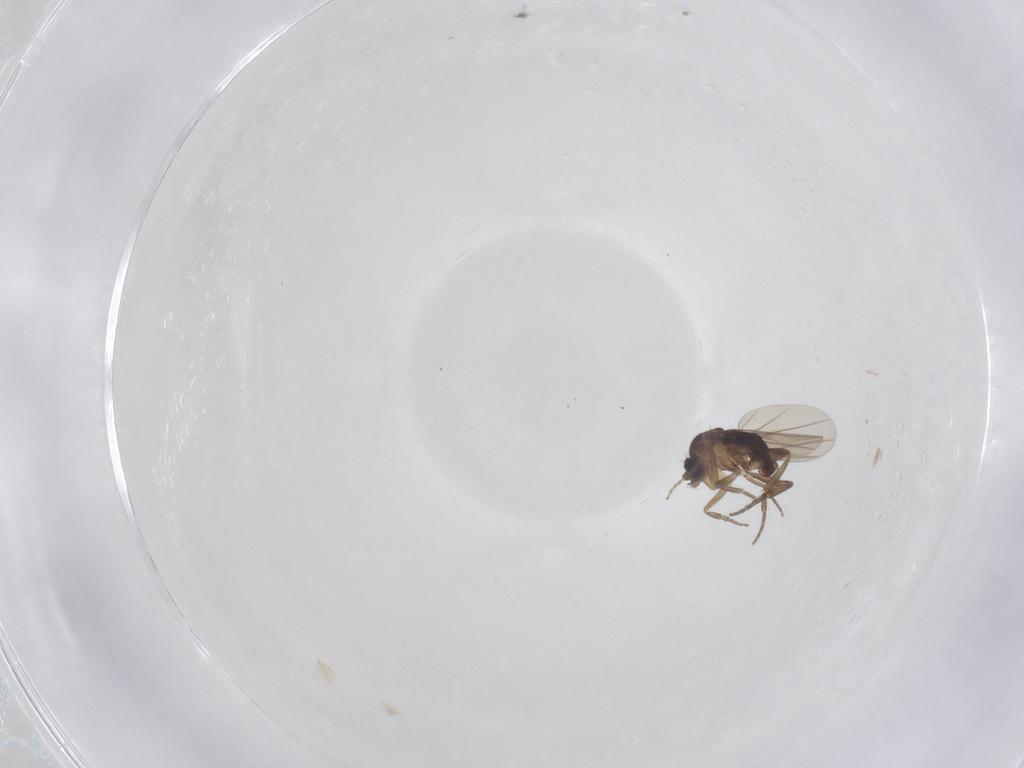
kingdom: Animalia
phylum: Arthropoda
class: Insecta
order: Diptera
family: Phoridae
